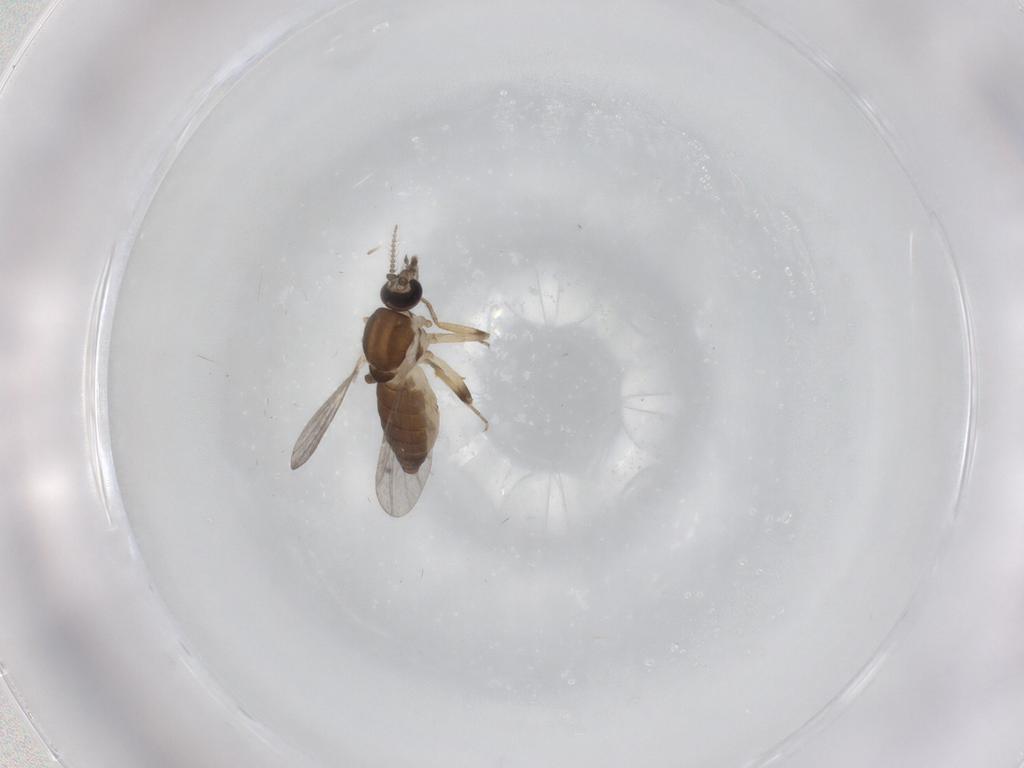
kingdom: Animalia
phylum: Arthropoda
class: Insecta
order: Diptera
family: Ceratopogonidae
